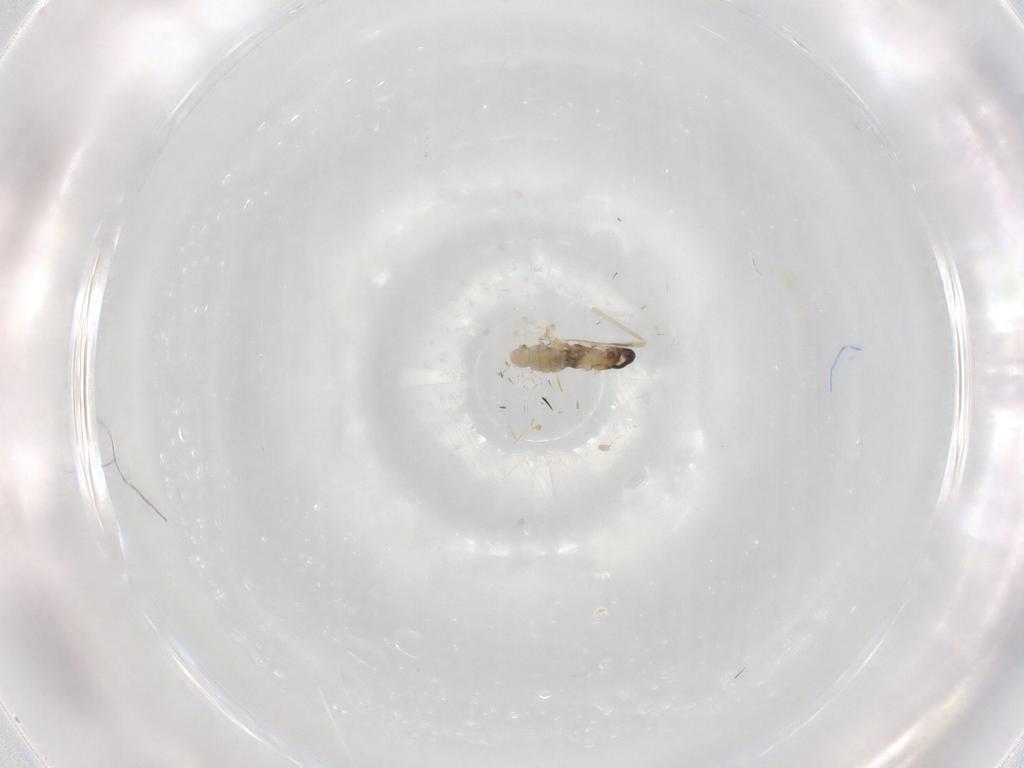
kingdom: Animalia
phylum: Arthropoda
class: Insecta
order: Diptera
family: Cecidomyiidae
